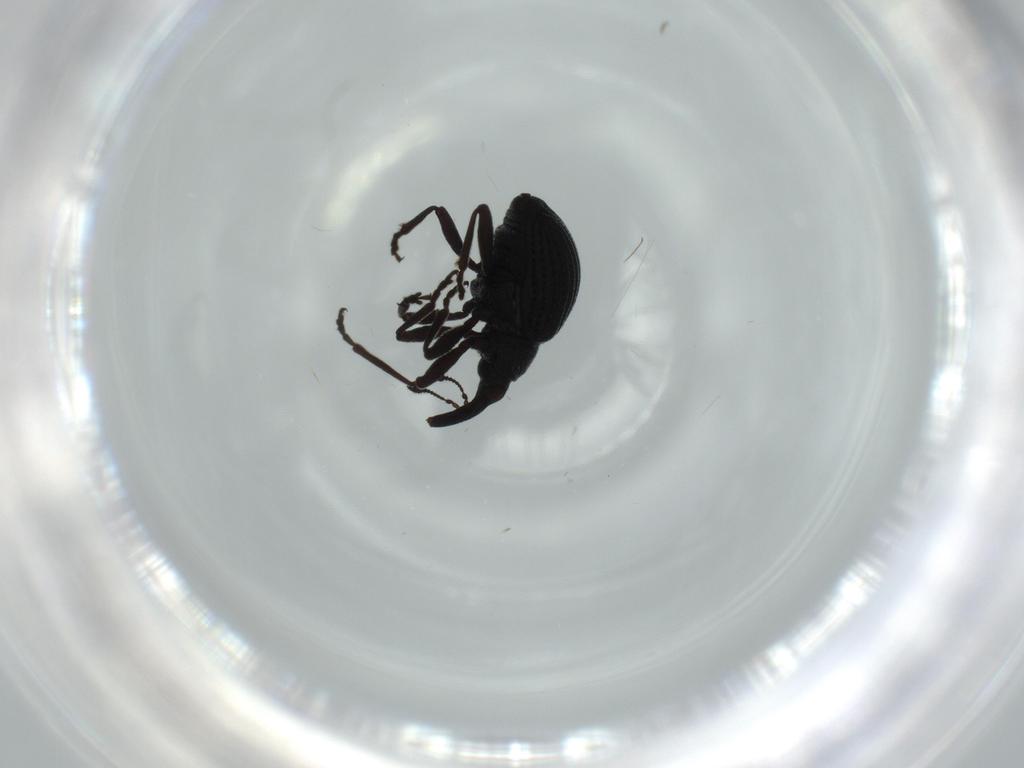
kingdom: Animalia
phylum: Arthropoda
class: Insecta
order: Coleoptera
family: Brentidae
